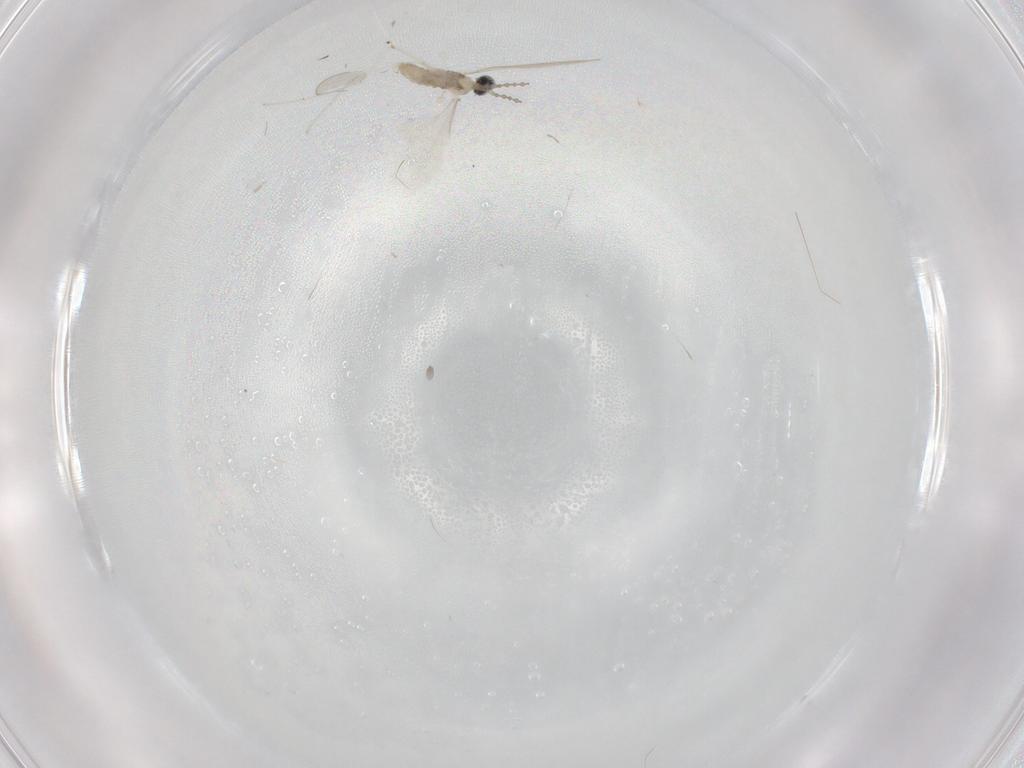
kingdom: Animalia
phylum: Arthropoda
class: Insecta
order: Diptera
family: Cecidomyiidae
